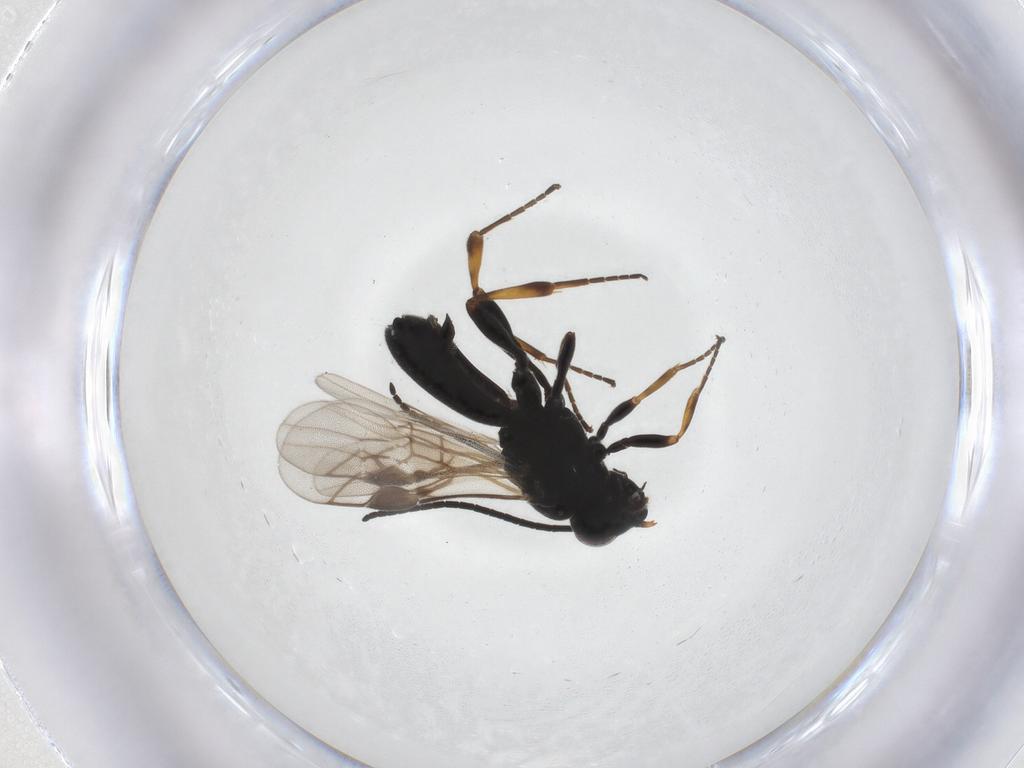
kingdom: Animalia
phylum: Arthropoda
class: Insecta
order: Hymenoptera
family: Braconidae
